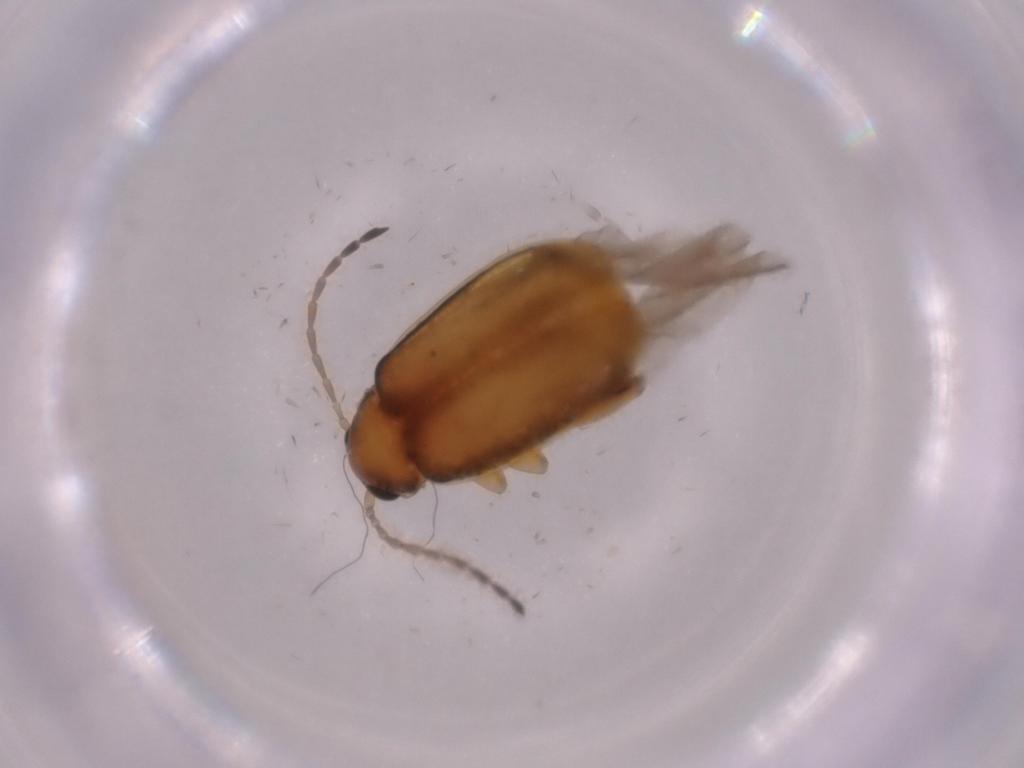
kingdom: Animalia
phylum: Arthropoda
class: Insecta
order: Coleoptera
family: Chrysomelidae
